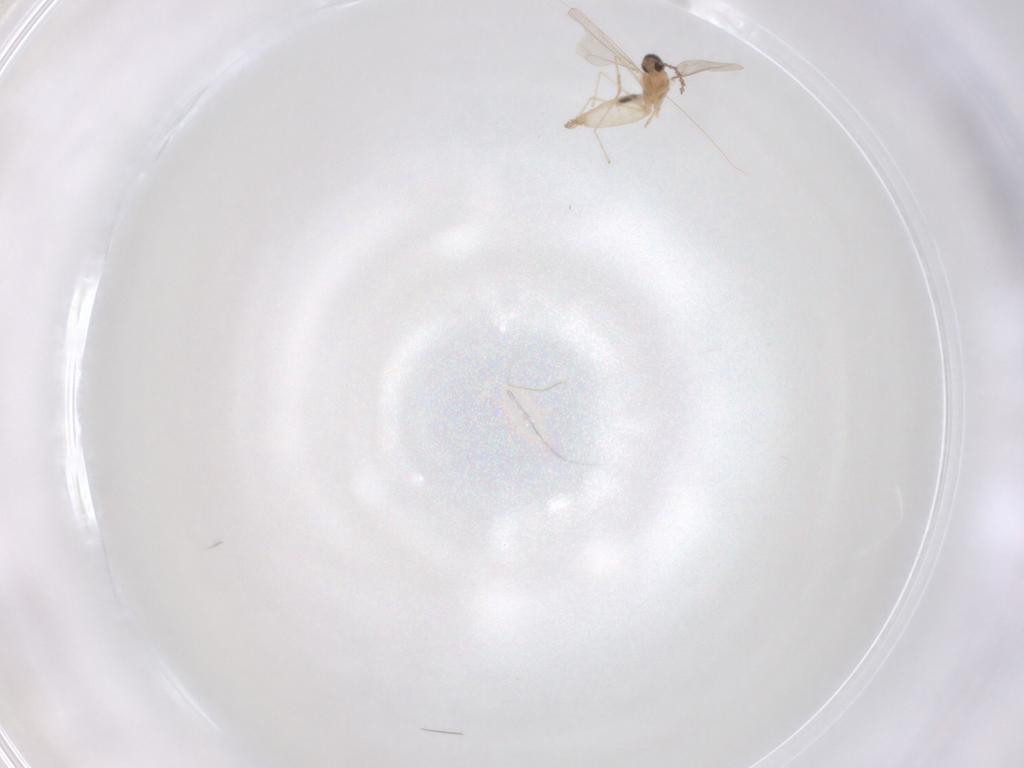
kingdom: Animalia
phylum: Arthropoda
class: Insecta
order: Diptera
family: Cecidomyiidae
